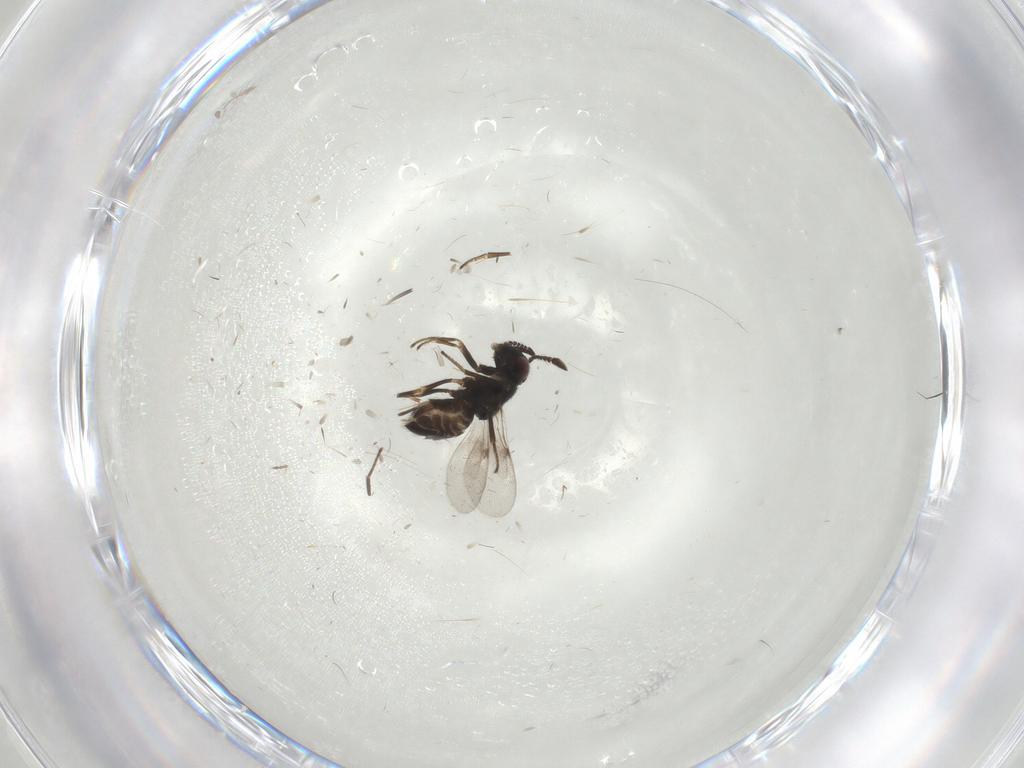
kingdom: Animalia
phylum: Arthropoda
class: Insecta
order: Hymenoptera
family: Encyrtidae
